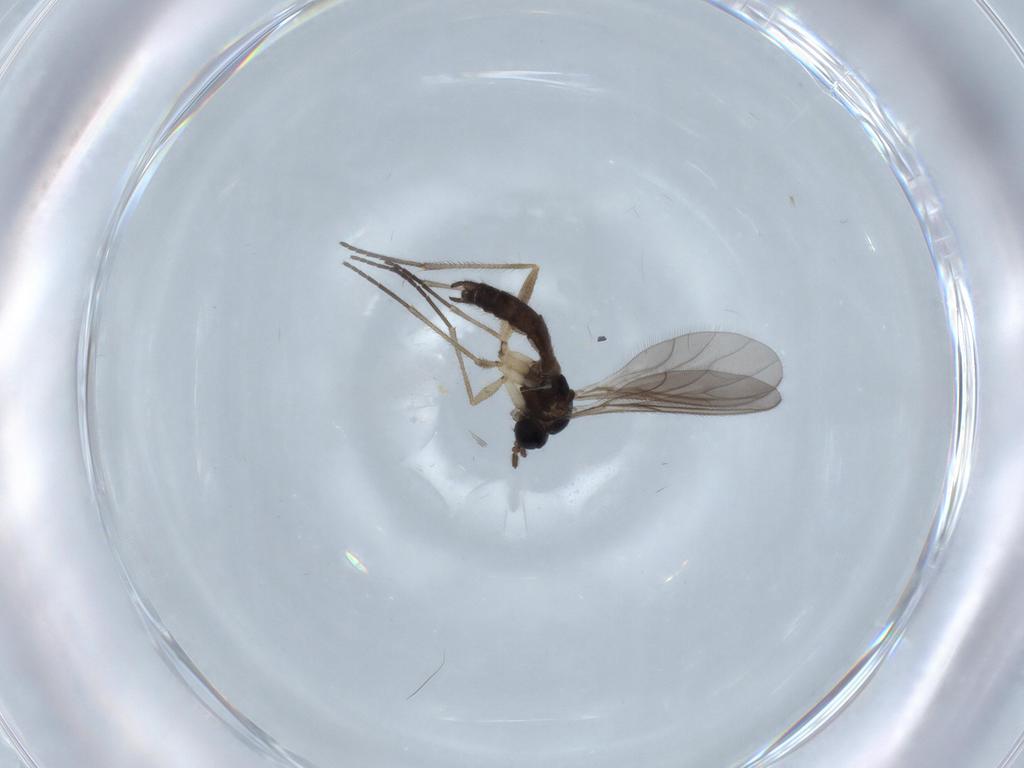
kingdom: Animalia
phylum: Arthropoda
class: Insecta
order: Diptera
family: Sciaridae
